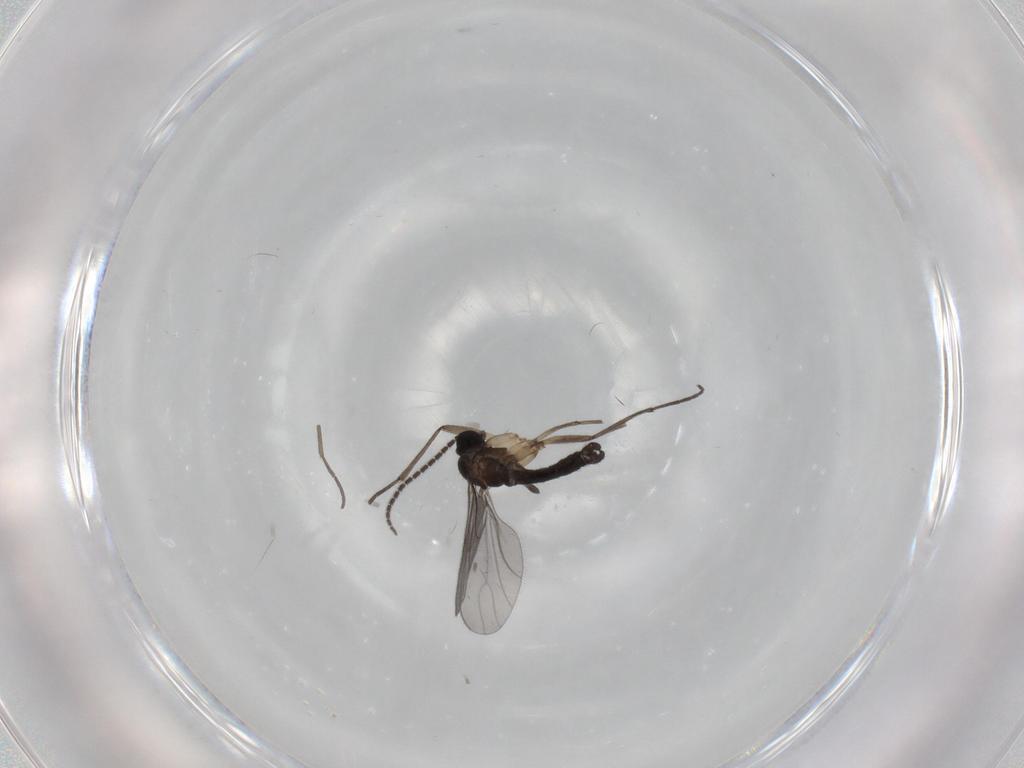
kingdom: Animalia
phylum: Arthropoda
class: Insecta
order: Diptera
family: Sciaridae
